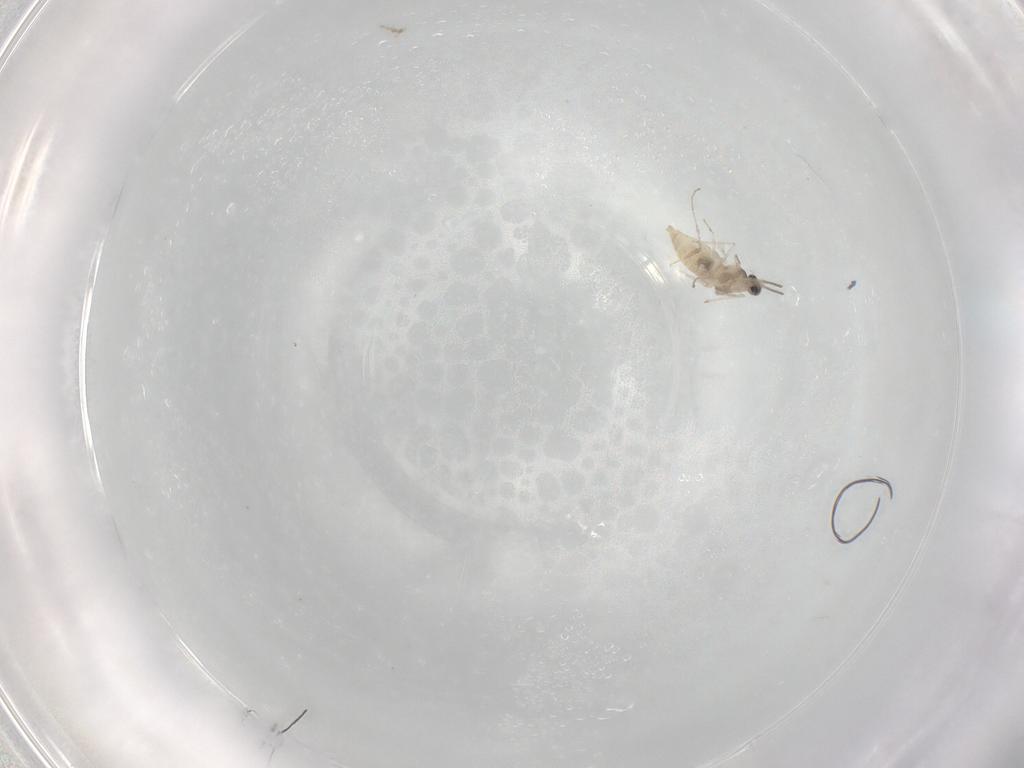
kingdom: Animalia
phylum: Arthropoda
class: Insecta
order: Diptera
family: Cecidomyiidae
